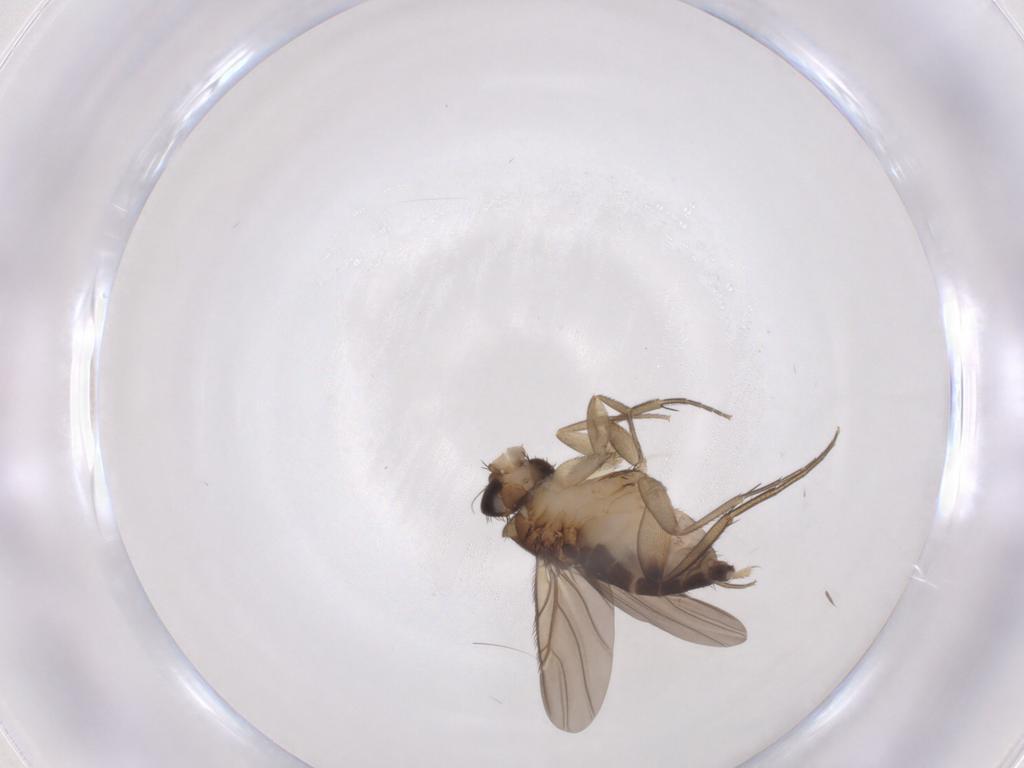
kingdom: Animalia
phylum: Arthropoda
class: Insecta
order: Diptera
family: Phoridae
